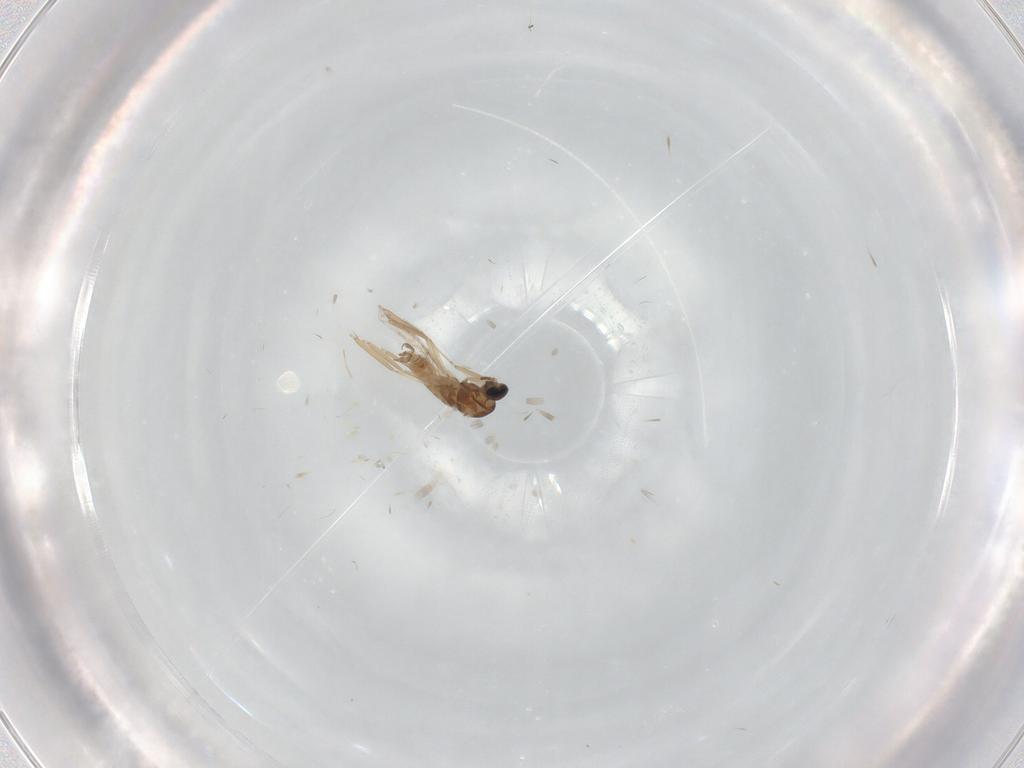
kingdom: Animalia
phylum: Arthropoda
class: Insecta
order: Diptera
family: Cecidomyiidae
